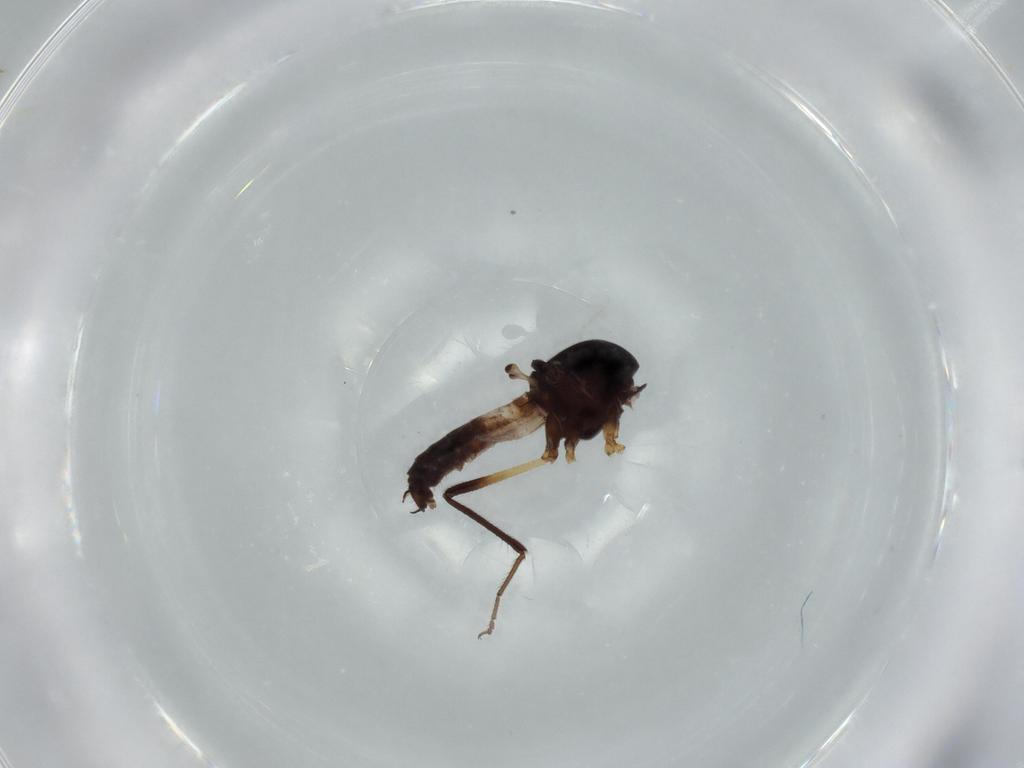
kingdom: Animalia
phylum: Arthropoda
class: Insecta
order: Diptera
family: Ceratopogonidae
